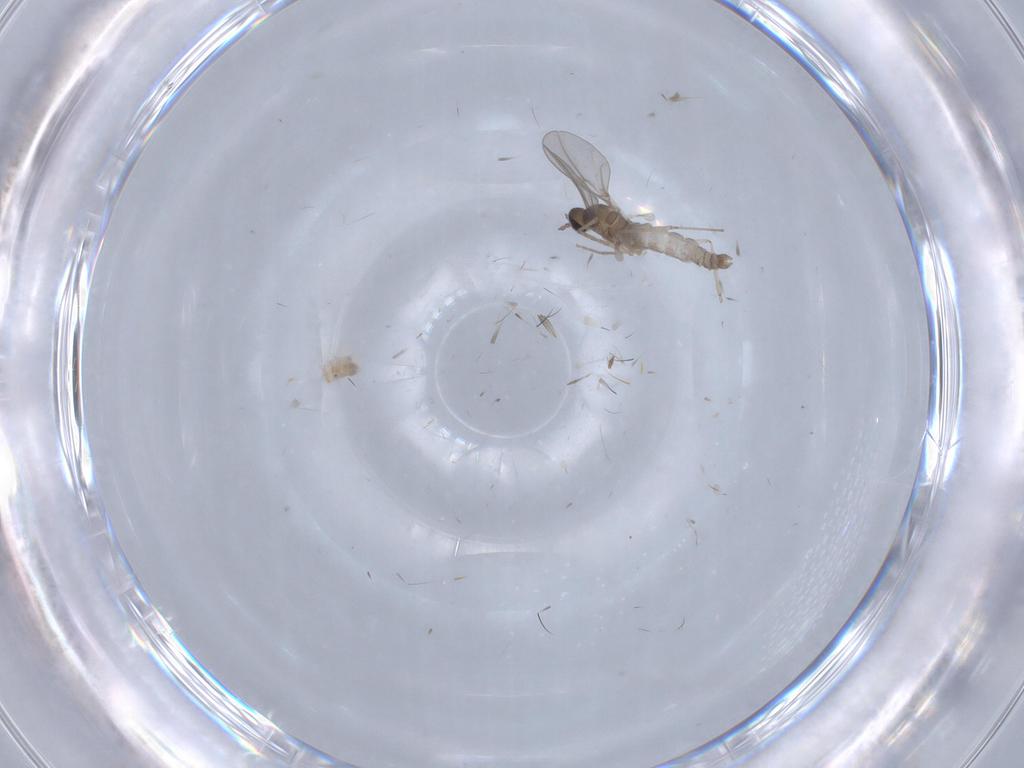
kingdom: Animalia
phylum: Arthropoda
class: Insecta
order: Diptera
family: Cecidomyiidae
